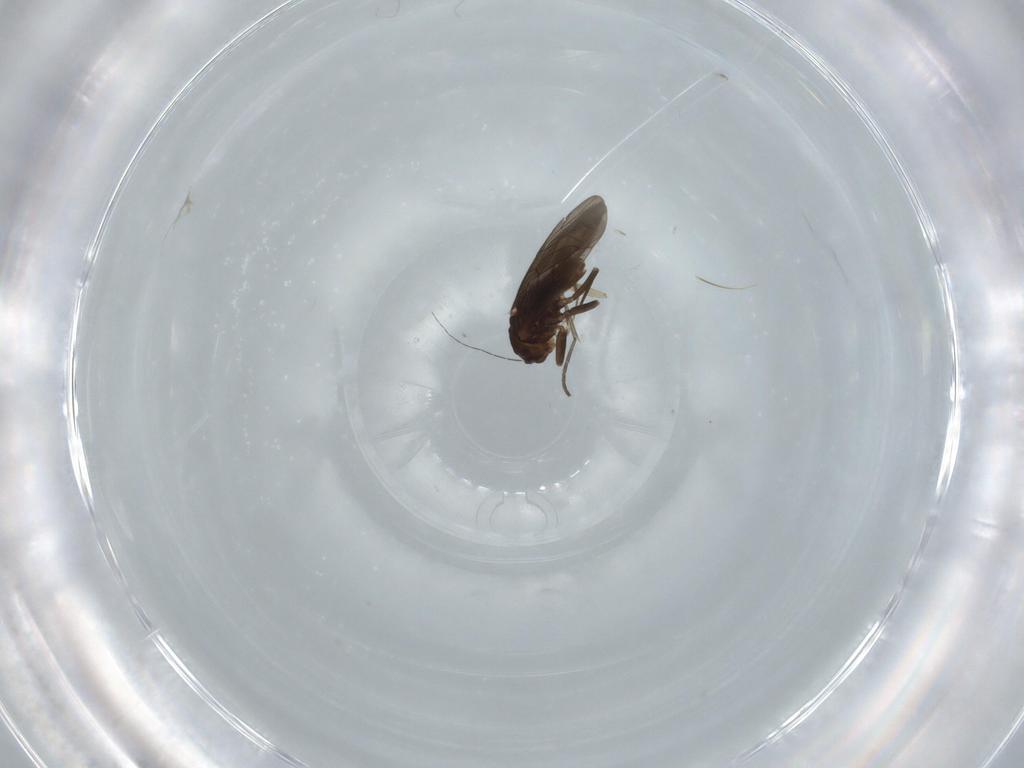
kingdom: Animalia
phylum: Arthropoda
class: Insecta
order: Diptera
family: Sciaridae
